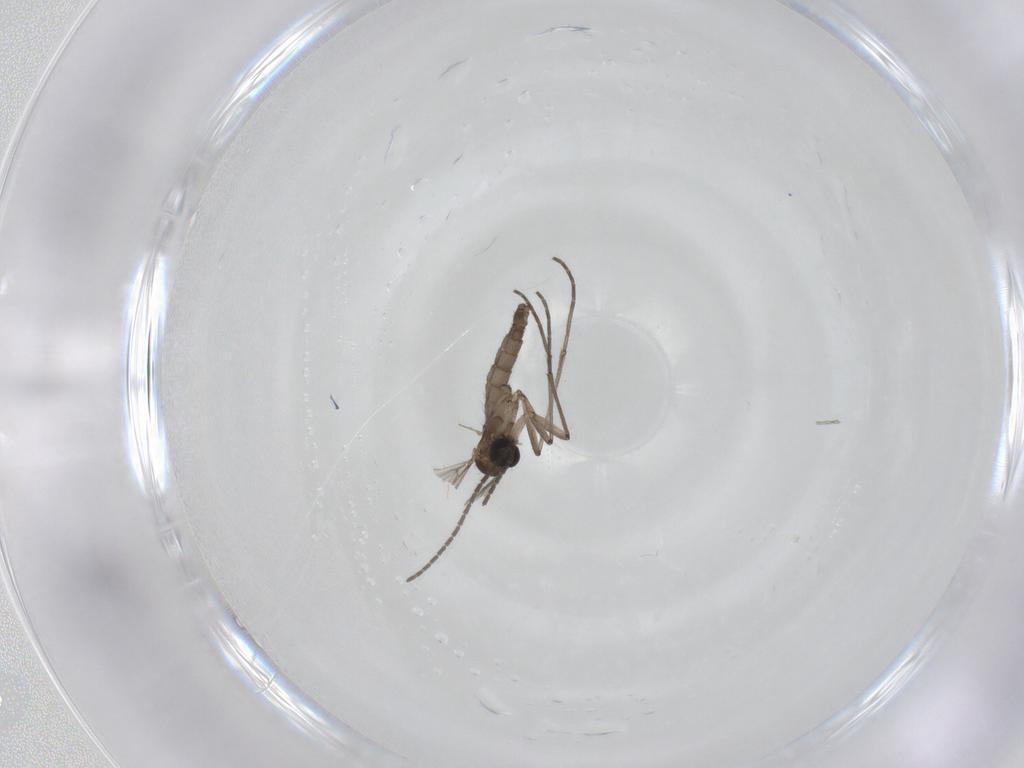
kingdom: Animalia
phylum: Arthropoda
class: Insecta
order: Diptera
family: Sciaridae
